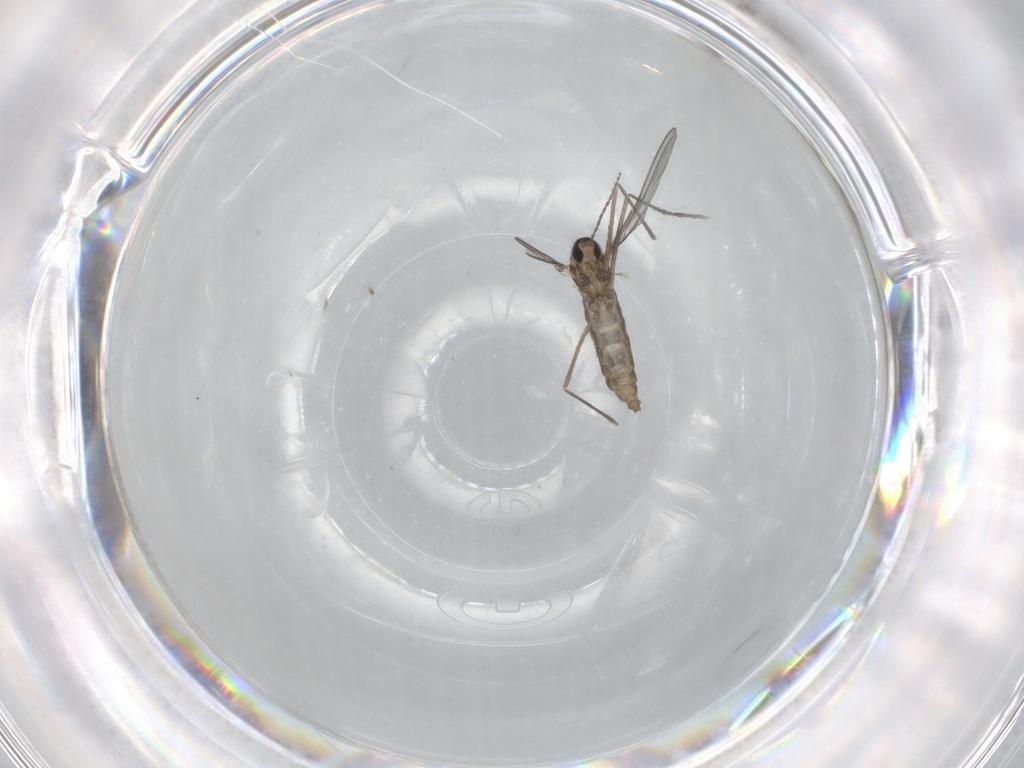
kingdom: Animalia
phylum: Arthropoda
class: Insecta
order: Diptera
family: Cecidomyiidae
